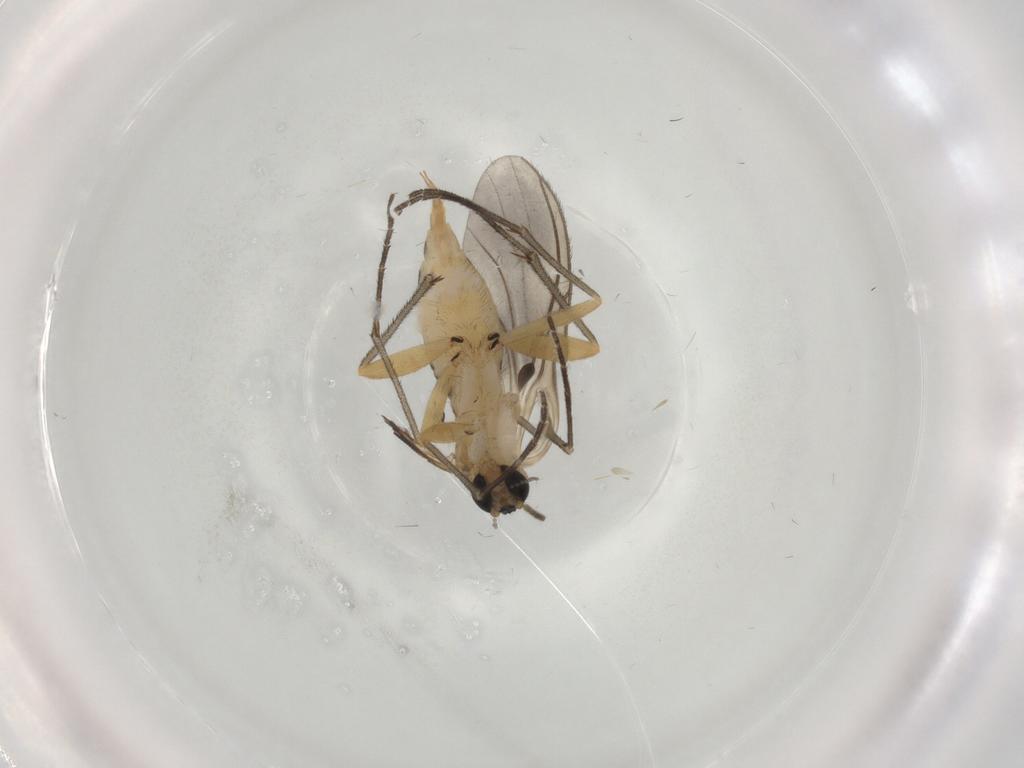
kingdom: Animalia
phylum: Arthropoda
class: Insecta
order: Diptera
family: Sciaridae
